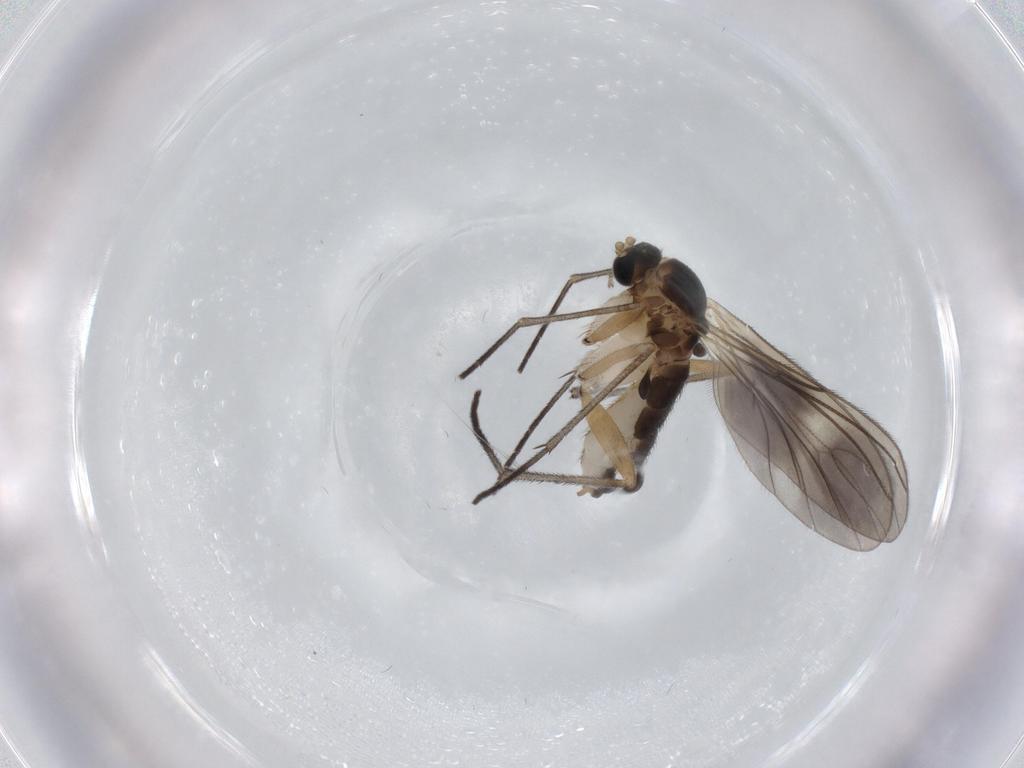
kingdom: Animalia
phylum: Arthropoda
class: Insecta
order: Diptera
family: Sciaridae
